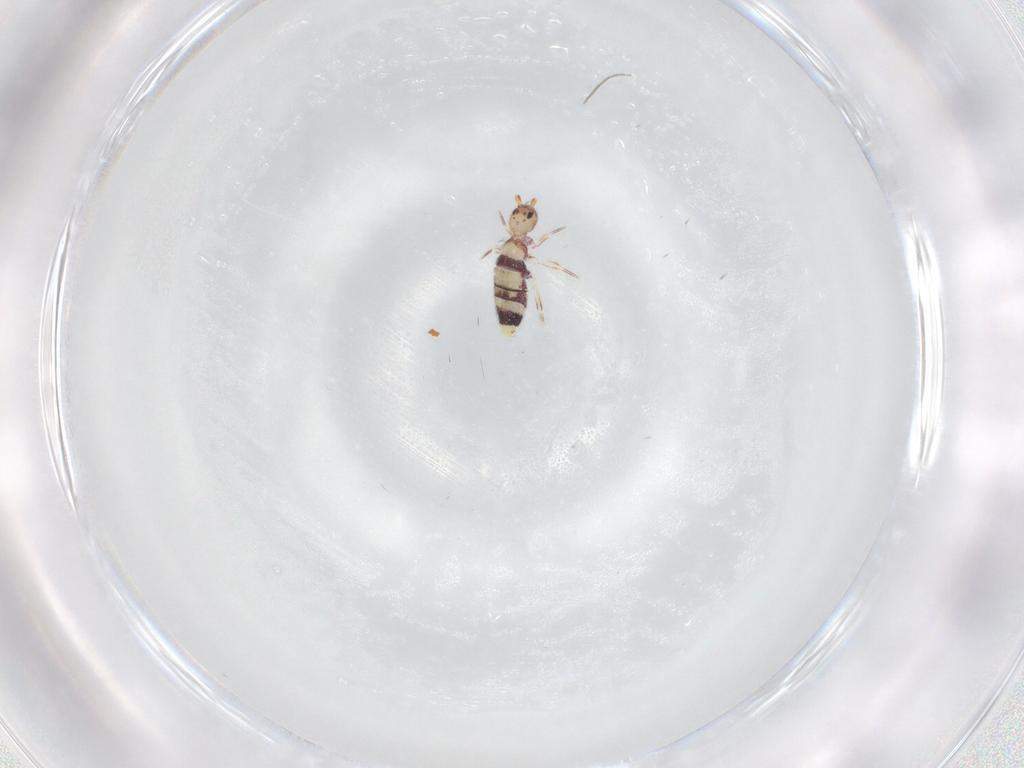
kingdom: Animalia
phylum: Arthropoda
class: Collembola
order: Entomobryomorpha
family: Entomobryidae
